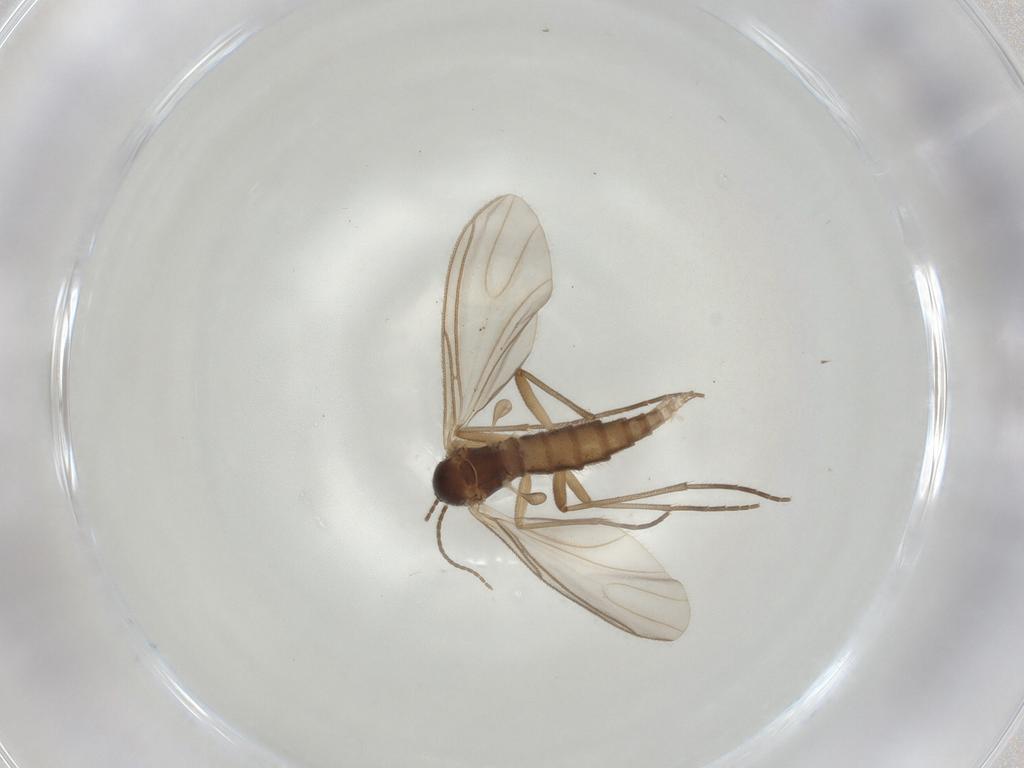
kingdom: Animalia
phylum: Arthropoda
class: Insecta
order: Diptera
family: Sciaridae
